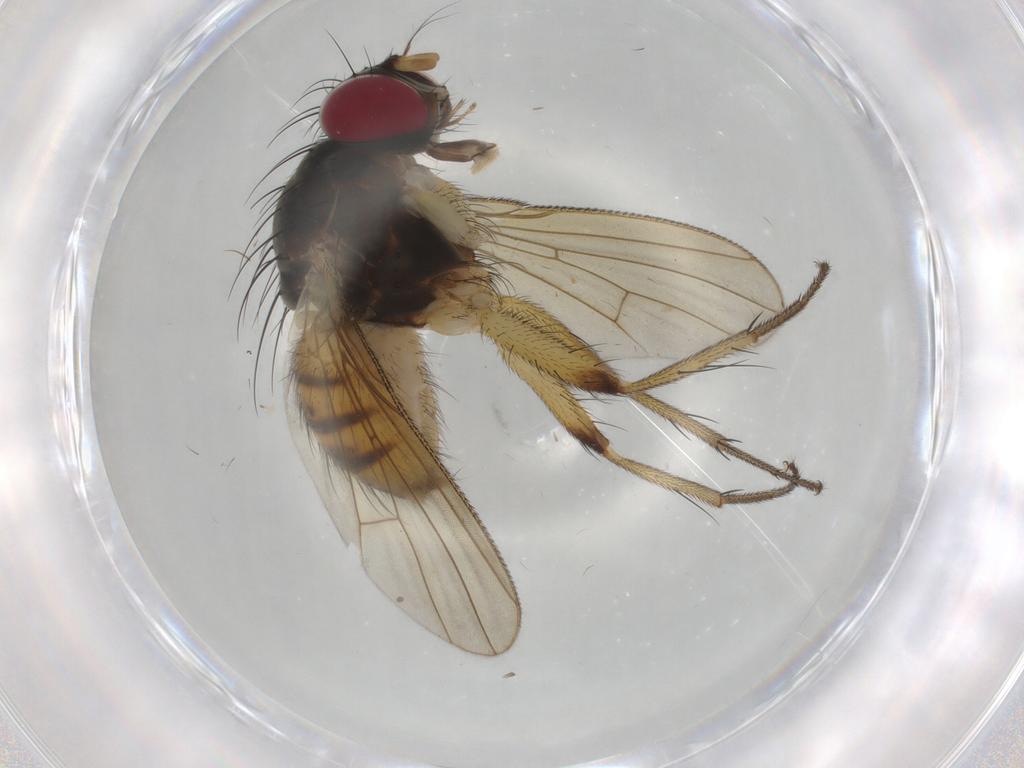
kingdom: Animalia
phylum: Arthropoda
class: Insecta
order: Diptera
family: Phoridae
